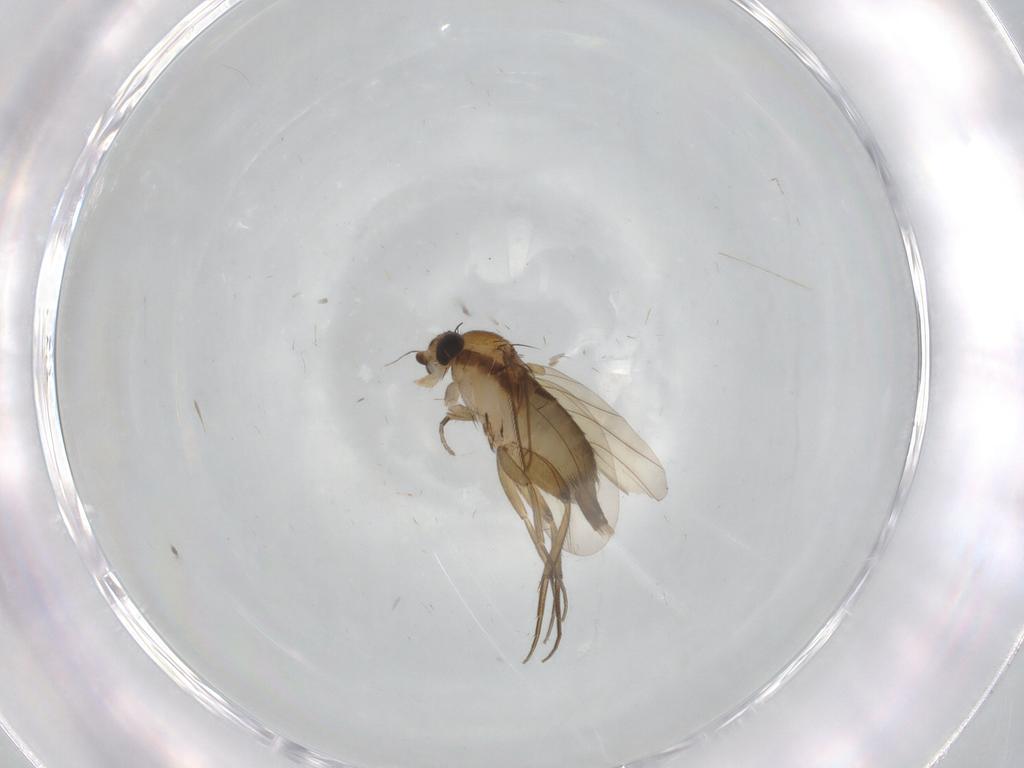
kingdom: Animalia
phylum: Arthropoda
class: Insecta
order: Diptera
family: Phoridae
